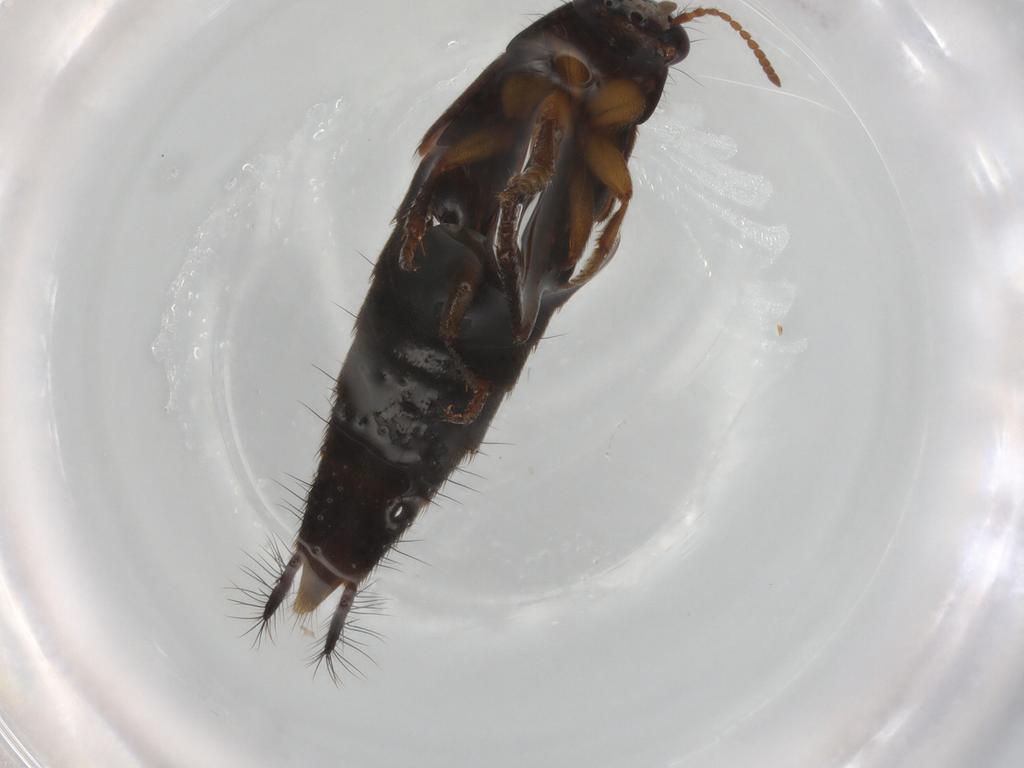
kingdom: Animalia
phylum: Arthropoda
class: Insecta
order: Coleoptera
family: Staphylinidae
